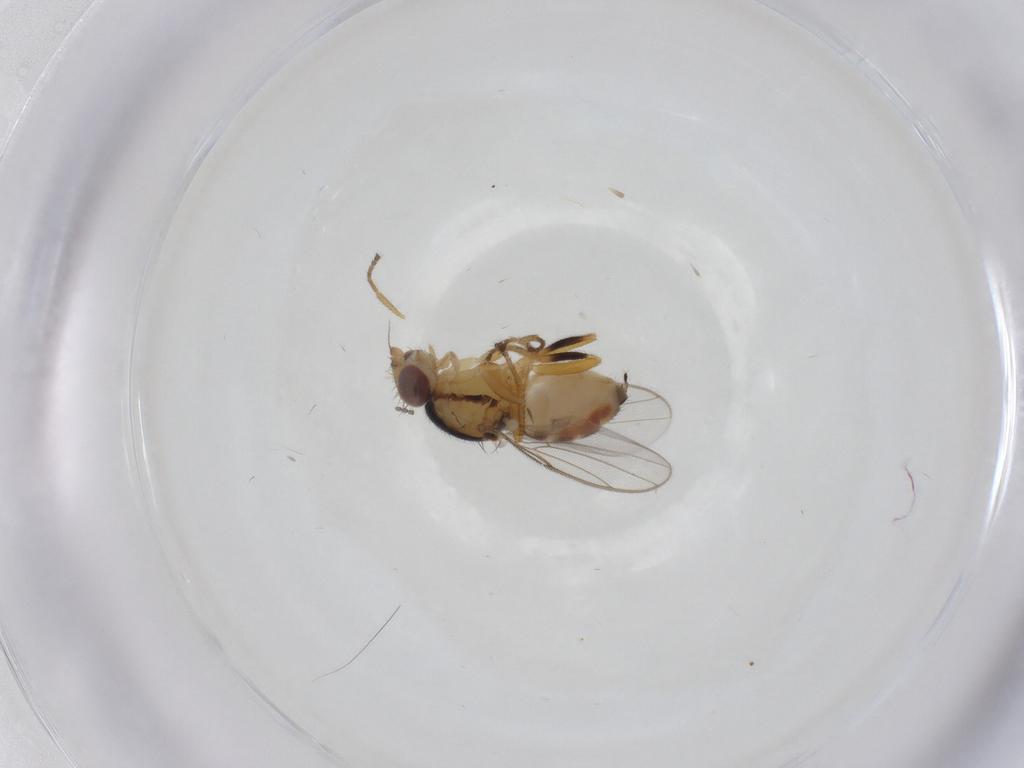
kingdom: Animalia
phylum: Arthropoda
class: Insecta
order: Diptera
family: Chloropidae
